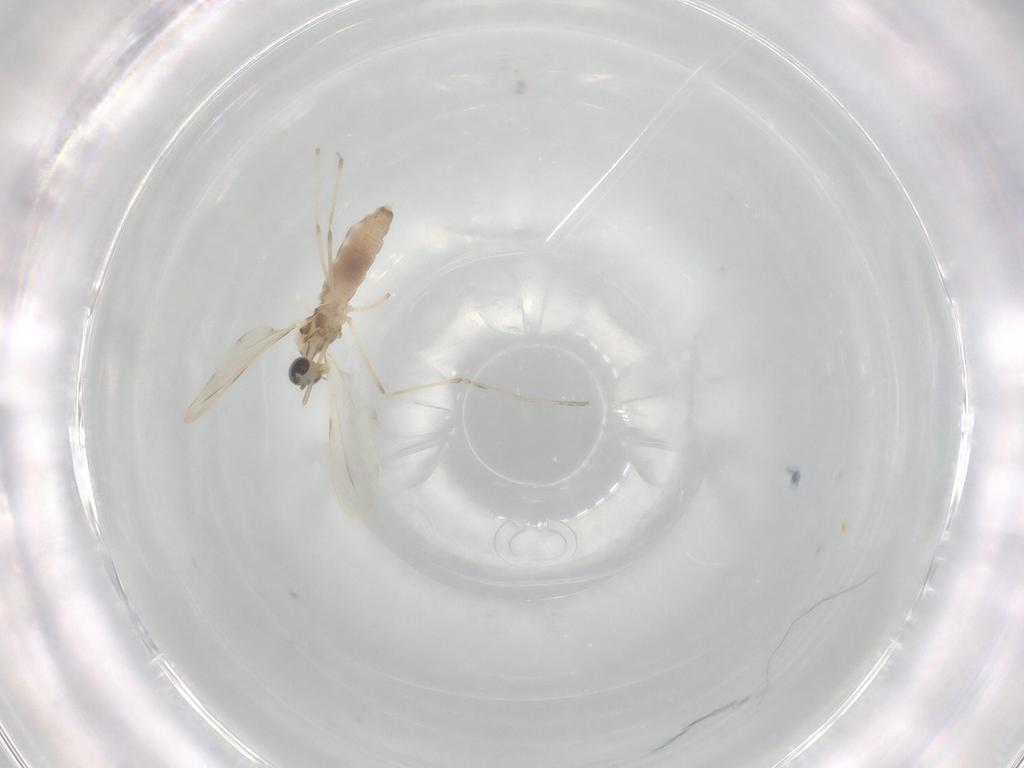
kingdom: Animalia
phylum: Arthropoda
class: Insecta
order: Diptera
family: Cecidomyiidae
